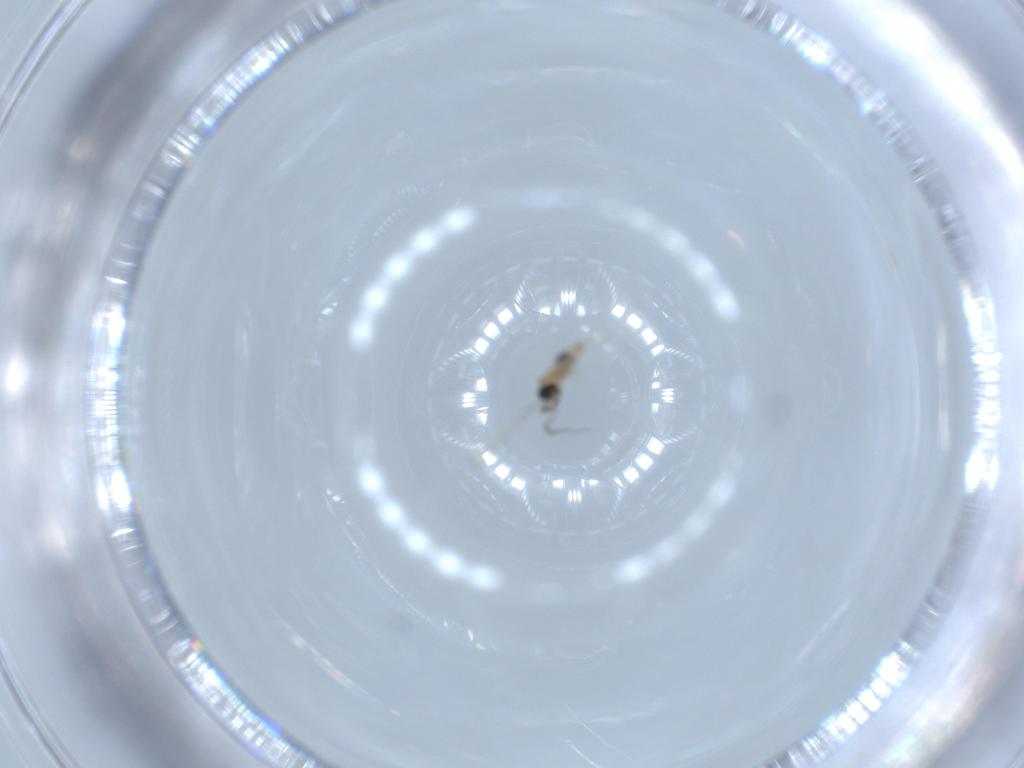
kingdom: Animalia
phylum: Arthropoda
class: Insecta
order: Diptera
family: Cecidomyiidae
